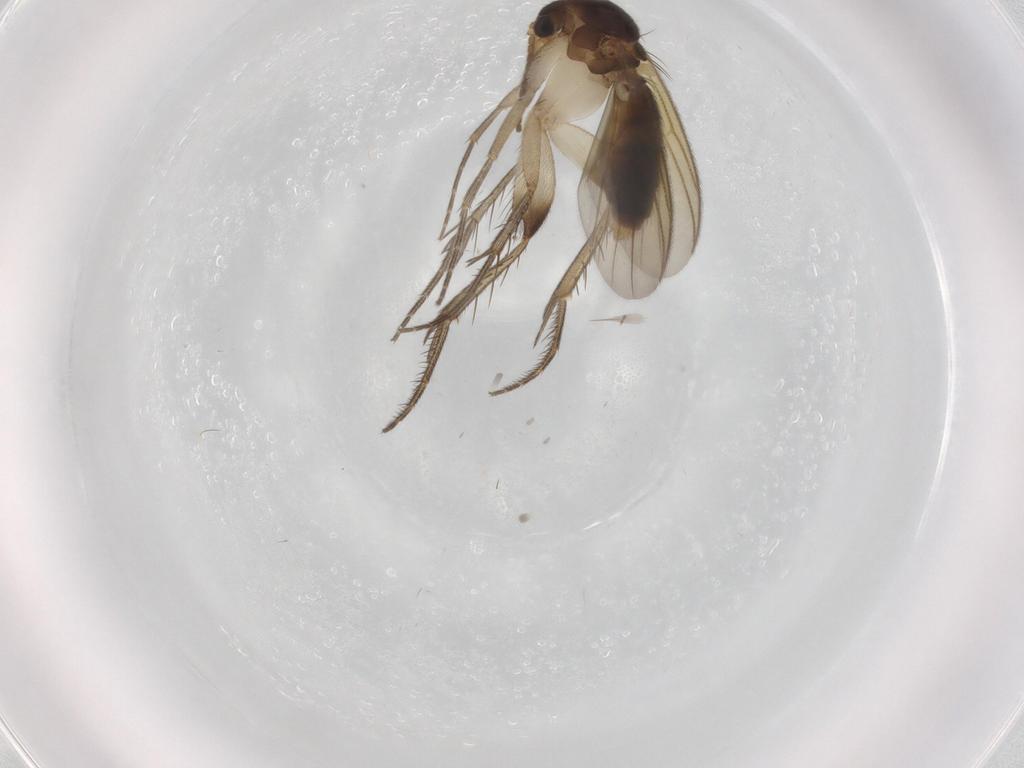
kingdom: Animalia
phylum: Arthropoda
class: Insecta
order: Diptera
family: Mycetophilidae
